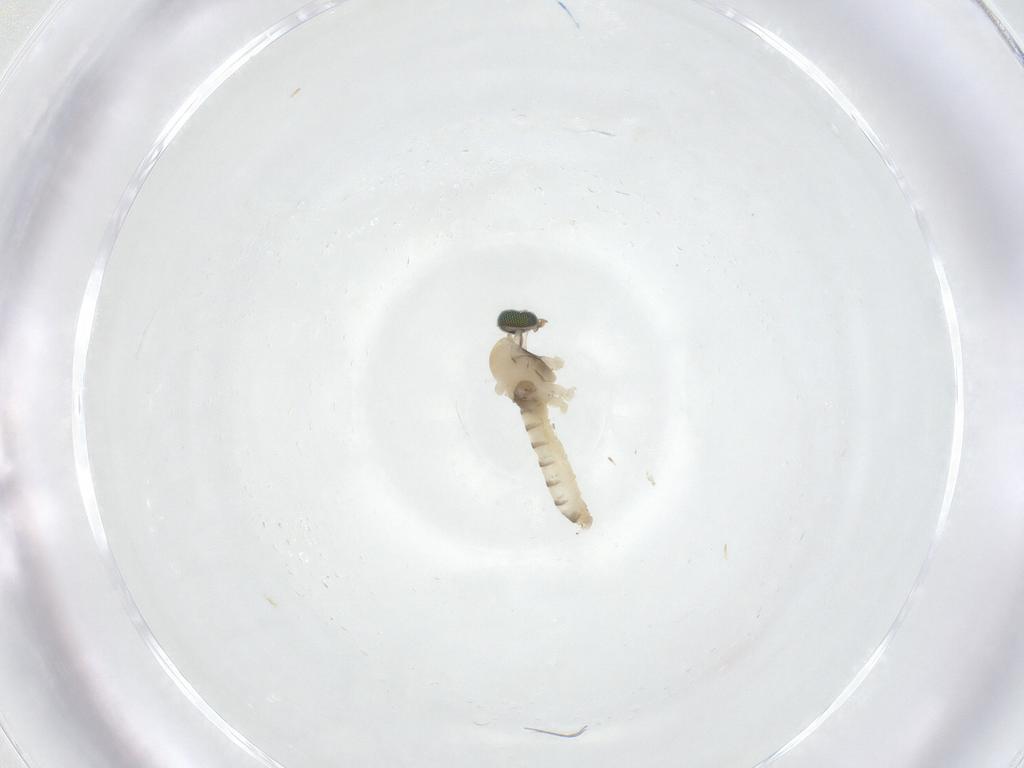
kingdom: Animalia
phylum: Arthropoda
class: Insecta
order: Diptera
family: Cecidomyiidae
